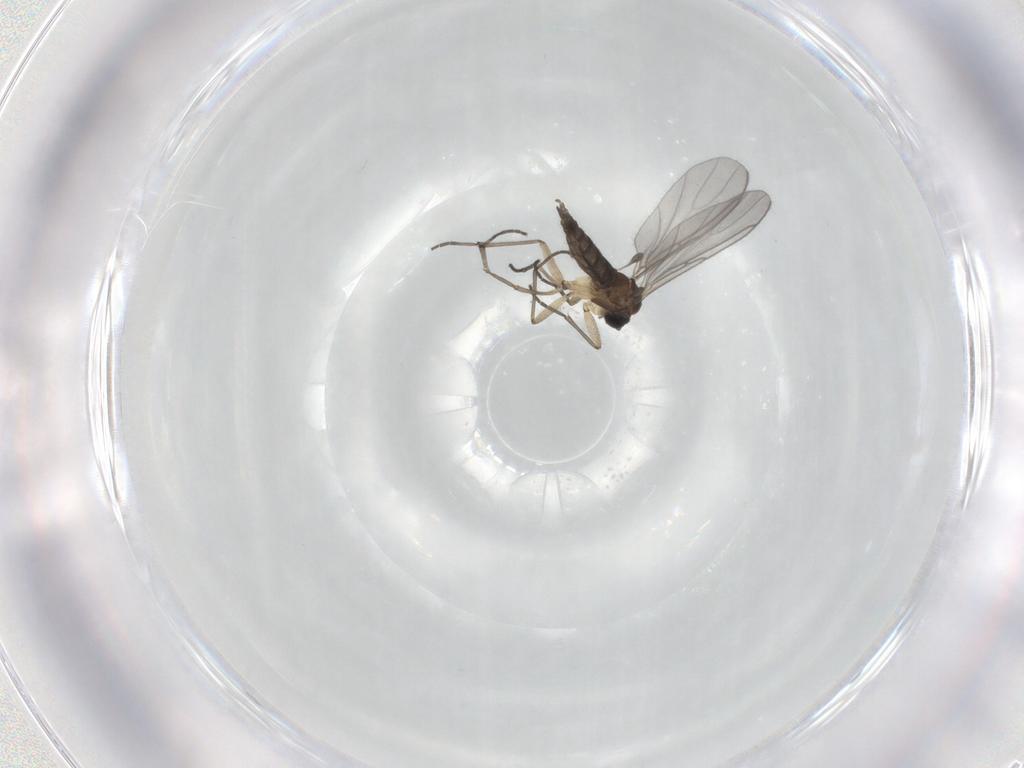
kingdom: Animalia
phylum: Arthropoda
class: Insecta
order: Diptera
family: Sciaridae
